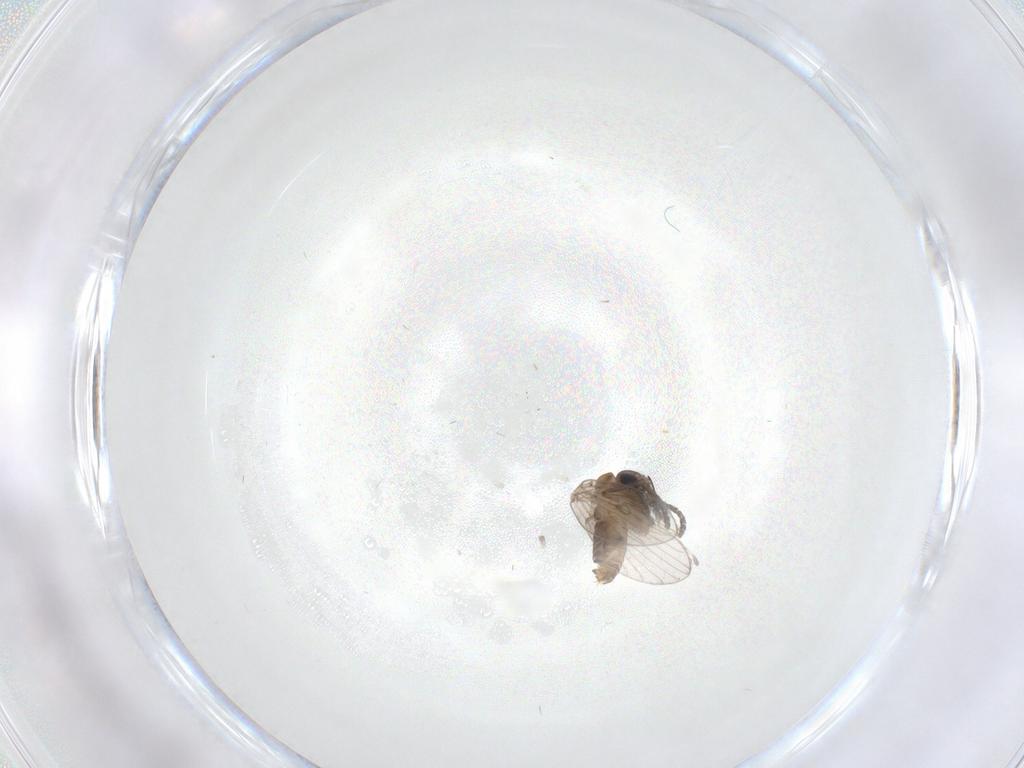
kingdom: Animalia
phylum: Arthropoda
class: Insecta
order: Diptera
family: Psychodidae
